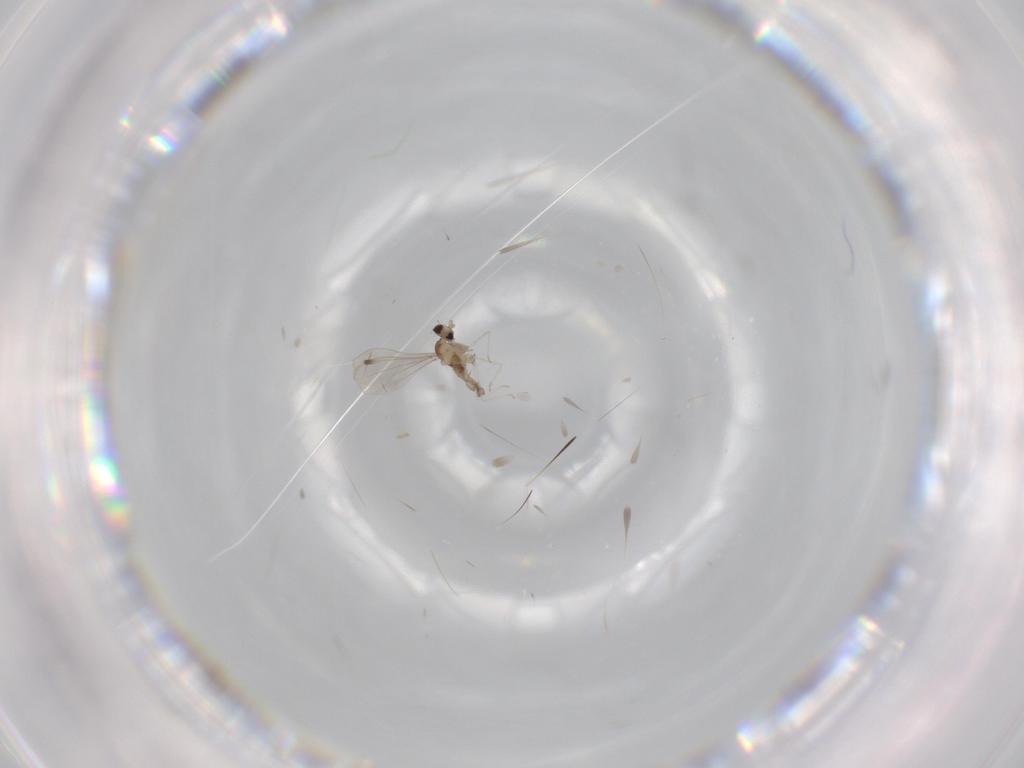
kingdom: Animalia
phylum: Arthropoda
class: Insecta
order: Diptera
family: Cecidomyiidae
